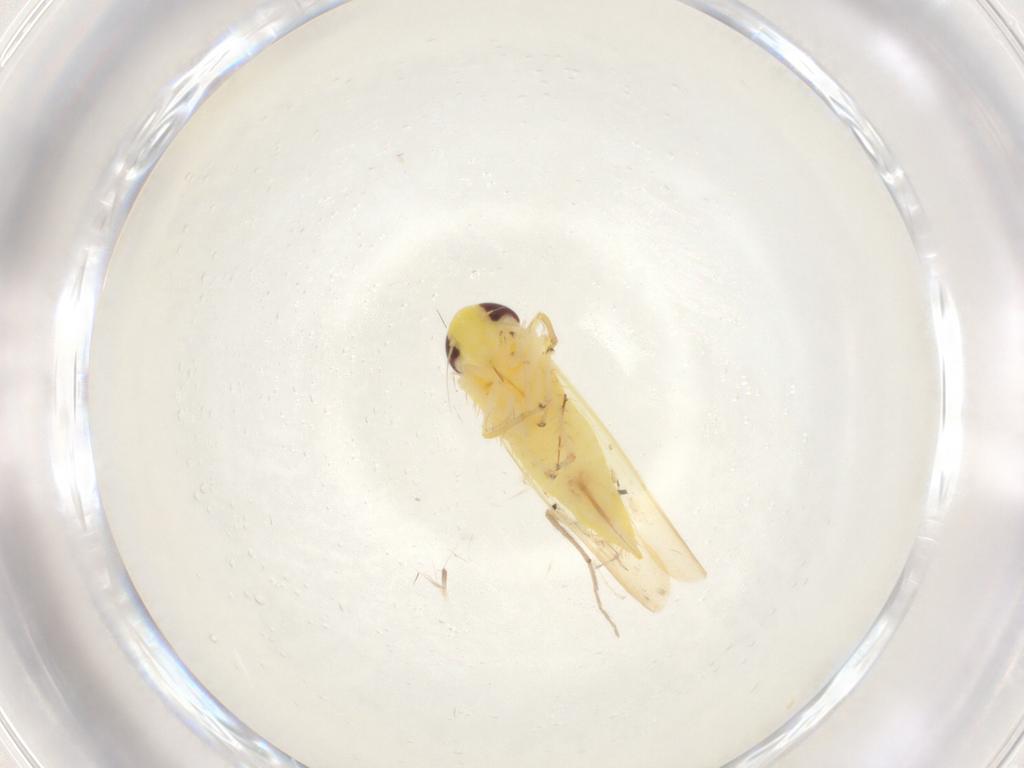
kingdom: Animalia
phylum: Arthropoda
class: Insecta
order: Hemiptera
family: Cicadellidae
